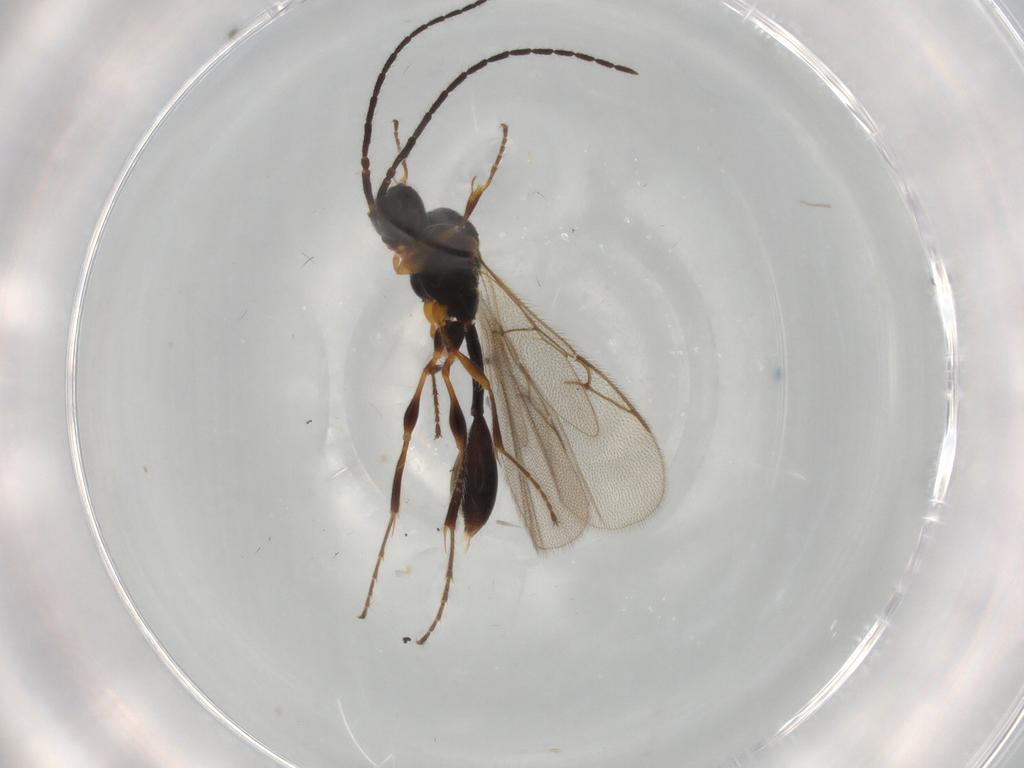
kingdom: Animalia
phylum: Arthropoda
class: Insecta
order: Hymenoptera
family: Diapriidae
